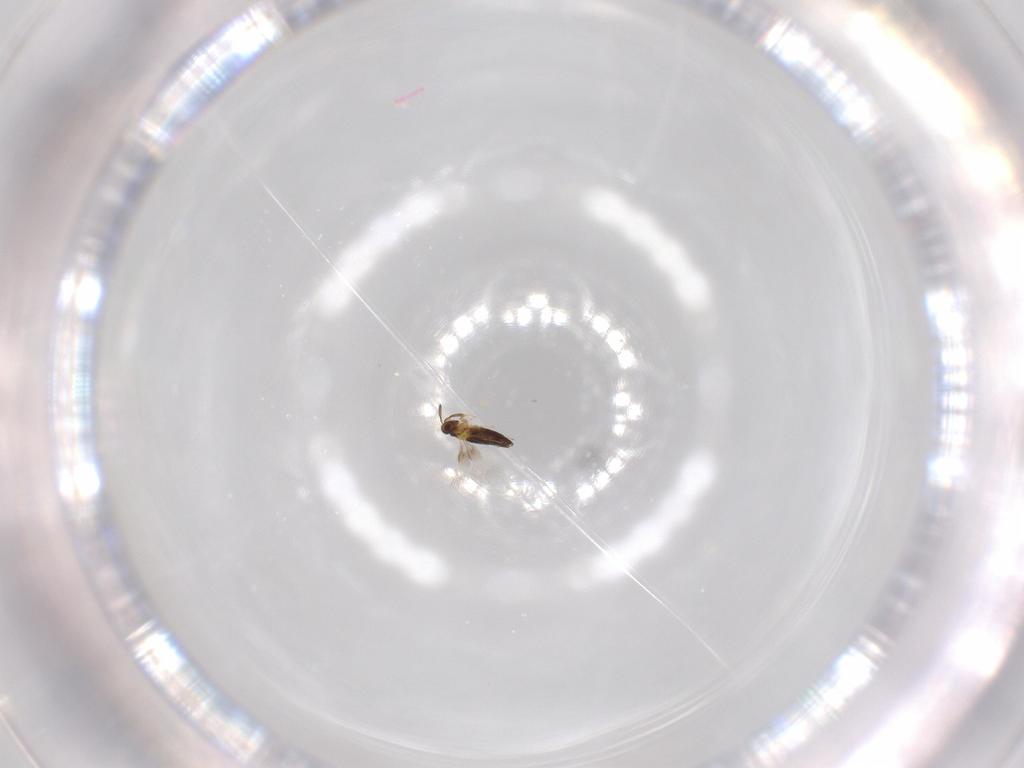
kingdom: Animalia
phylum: Arthropoda
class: Insecta
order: Hymenoptera
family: Signiphoridae
